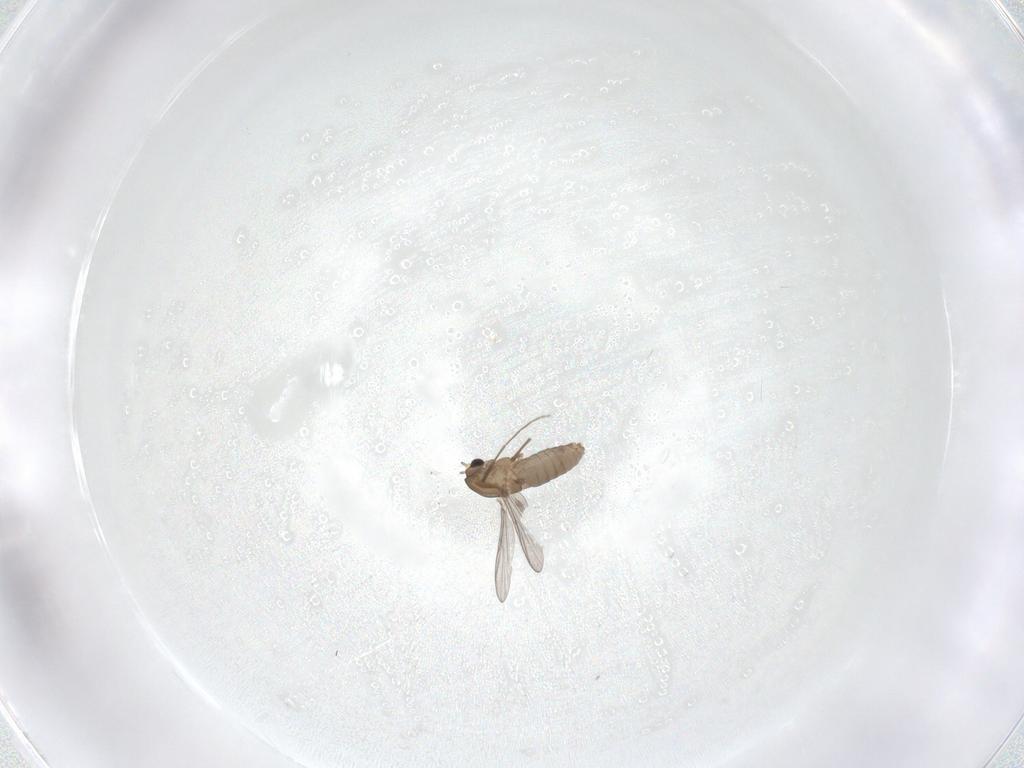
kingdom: Animalia
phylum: Arthropoda
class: Insecta
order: Diptera
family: Chironomidae
